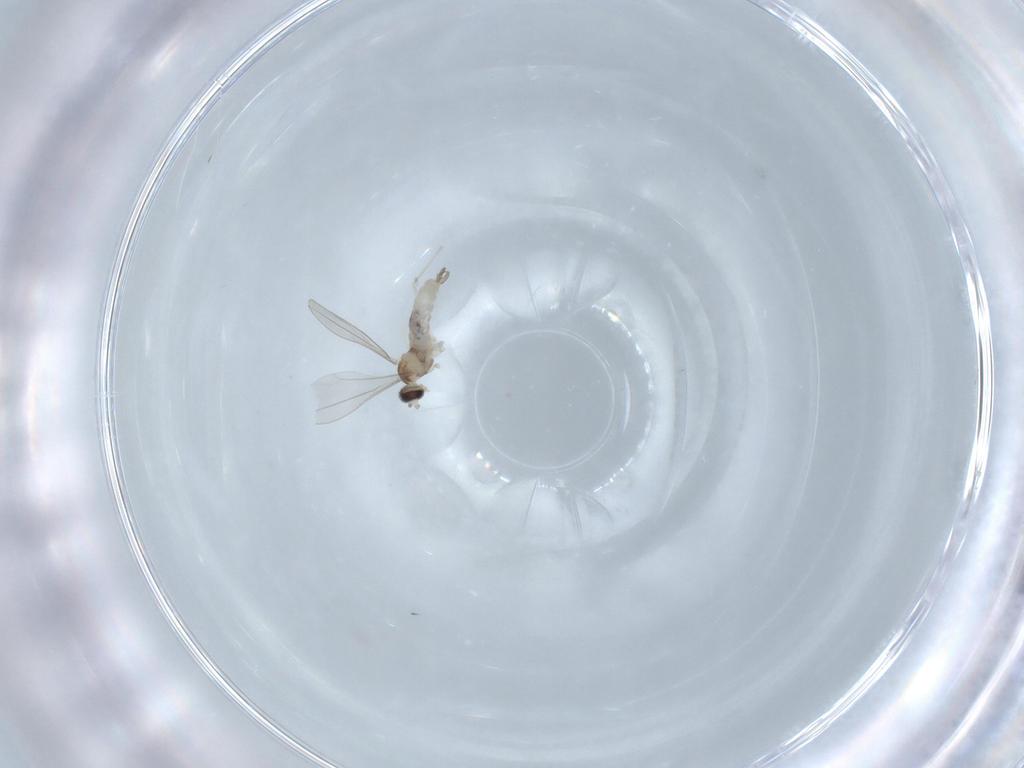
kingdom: Animalia
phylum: Arthropoda
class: Insecta
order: Diptera
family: Cecidomyiidae
